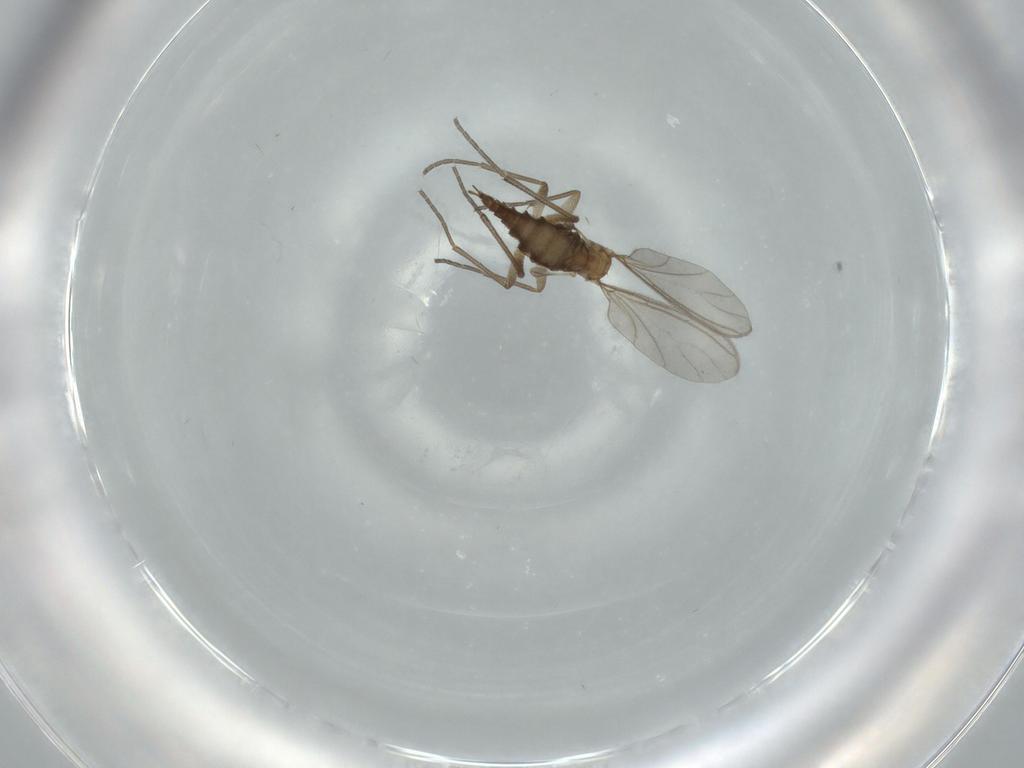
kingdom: Animalia
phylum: Arthropoda
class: Insecta
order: Diptera
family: Sciaridae
